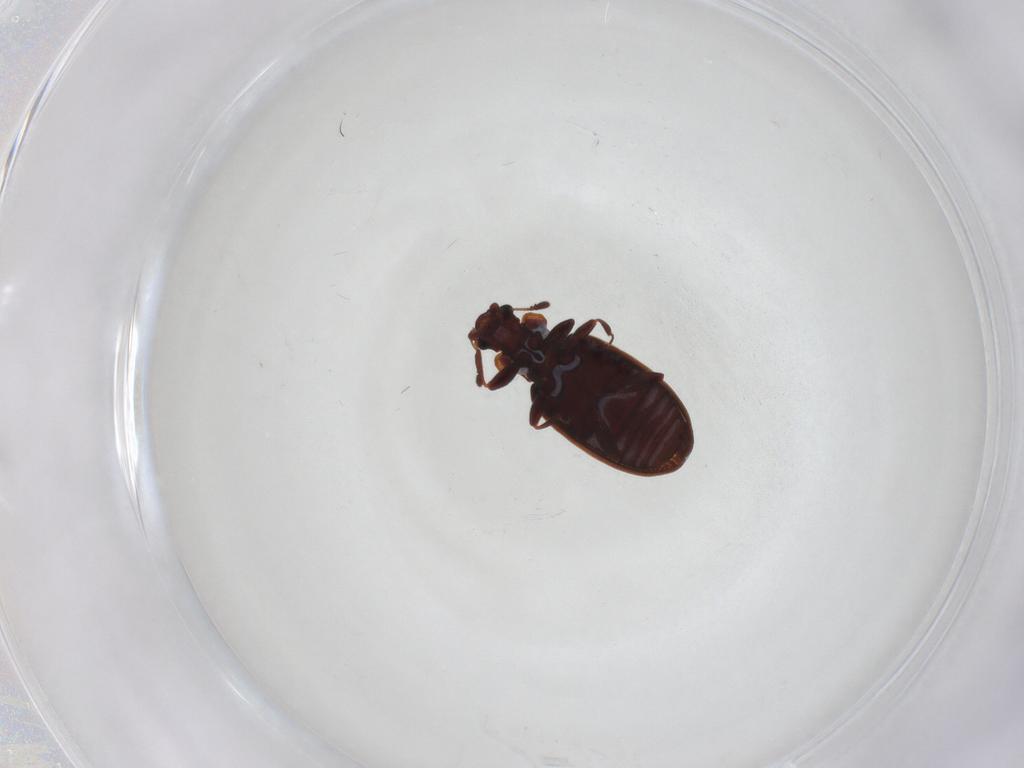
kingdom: Animalia
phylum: Arthropoda
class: Insecta
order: Coleoptera
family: Latridiidae
